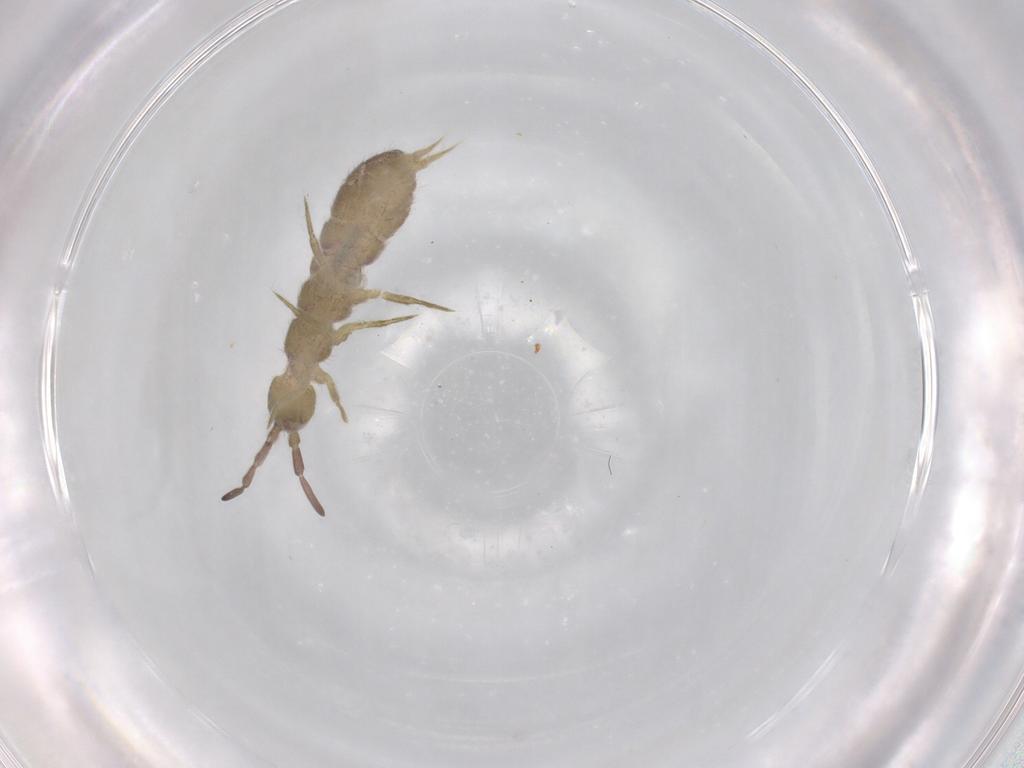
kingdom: Animalia
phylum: Arthropoda
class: Collembola
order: Entomobryomorpha
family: Isotomidae
